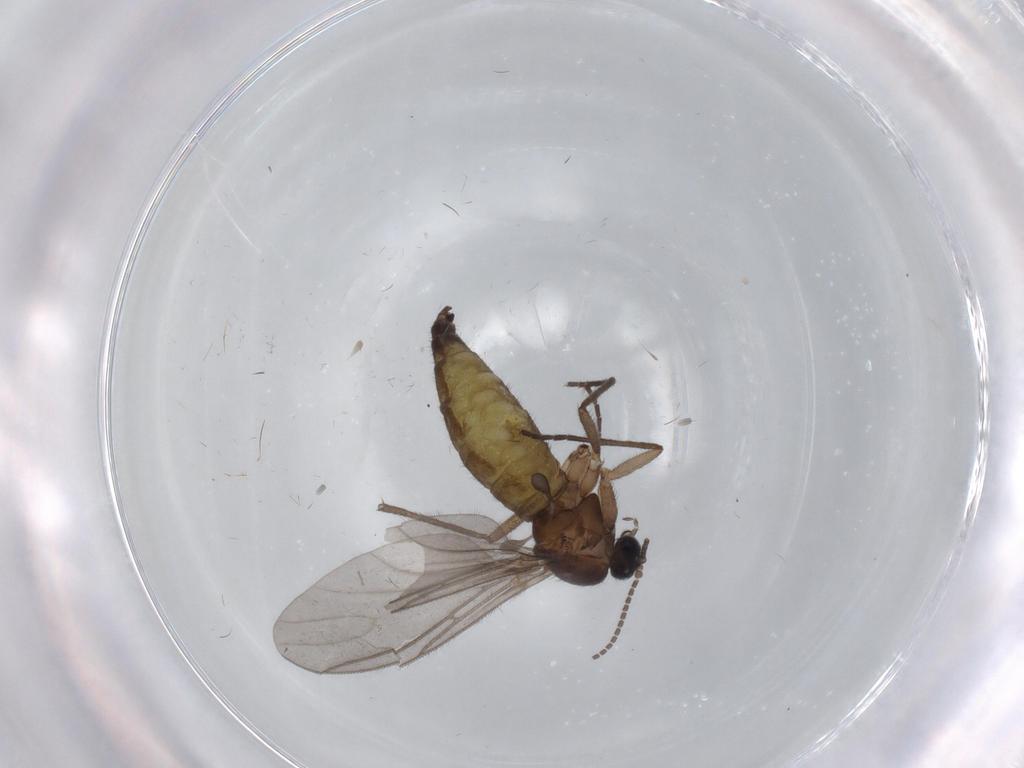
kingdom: Animalia
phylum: Arthropoda
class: Insecta
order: Diptera
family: Sciaridae
